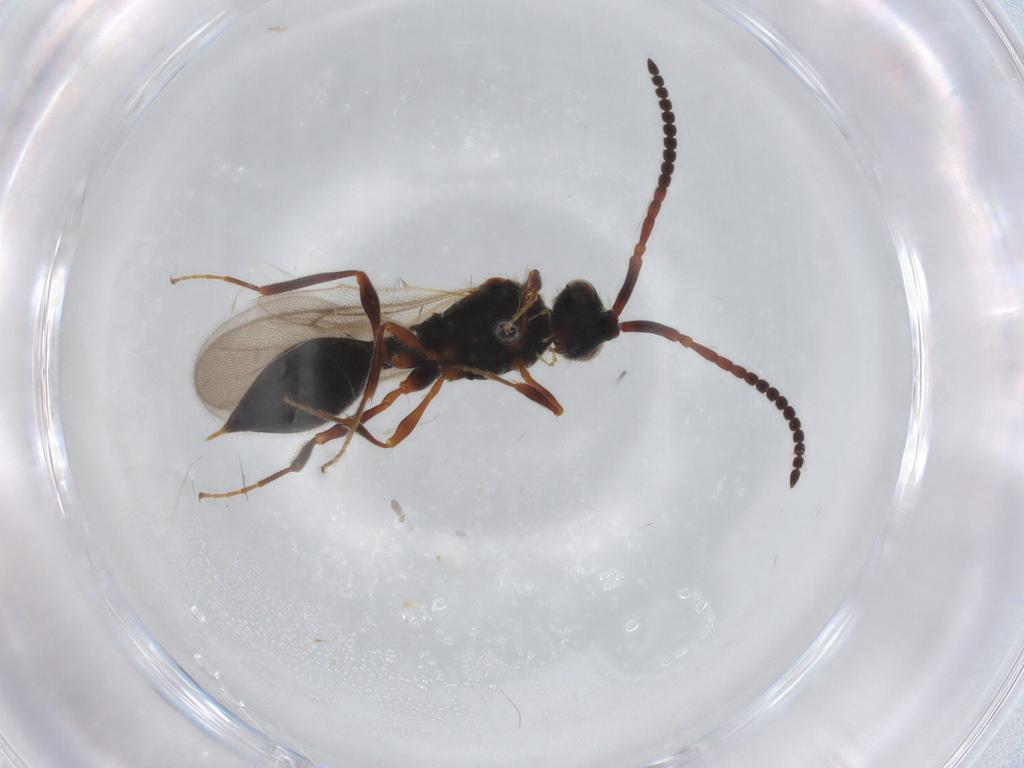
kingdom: Animalia
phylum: Arthropoda
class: Insecta
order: Hymenoptera
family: Diapriidae
